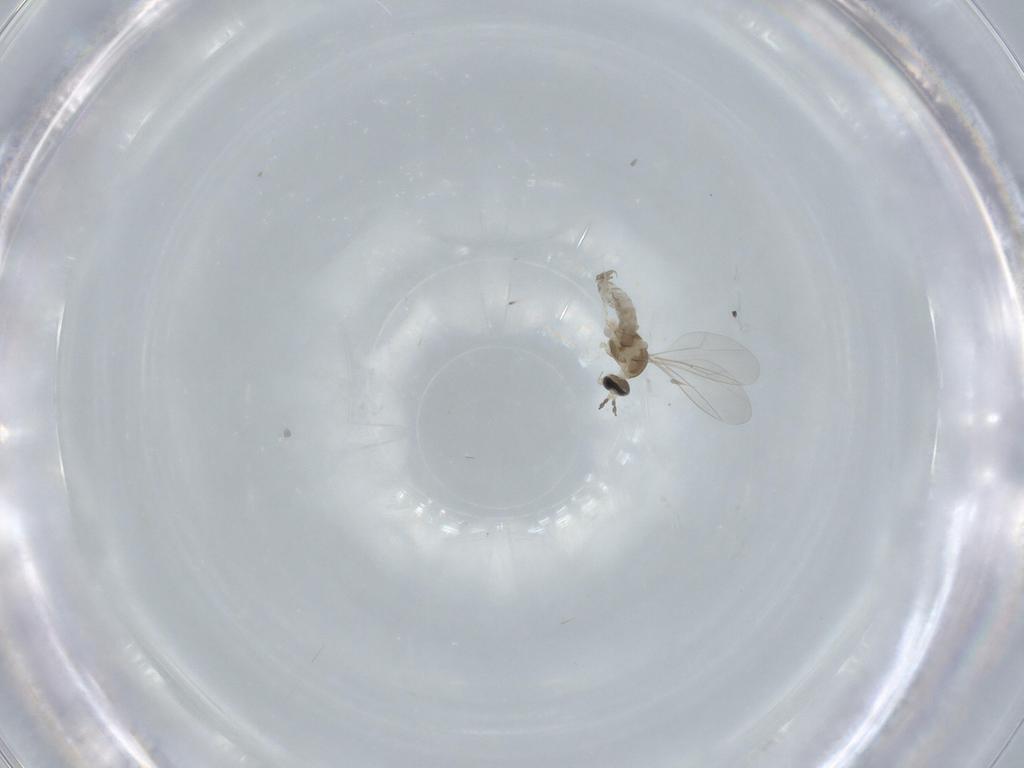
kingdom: Animalia
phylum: Arthropoda
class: Insecta
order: Diptera
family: Cecidomyiidae
